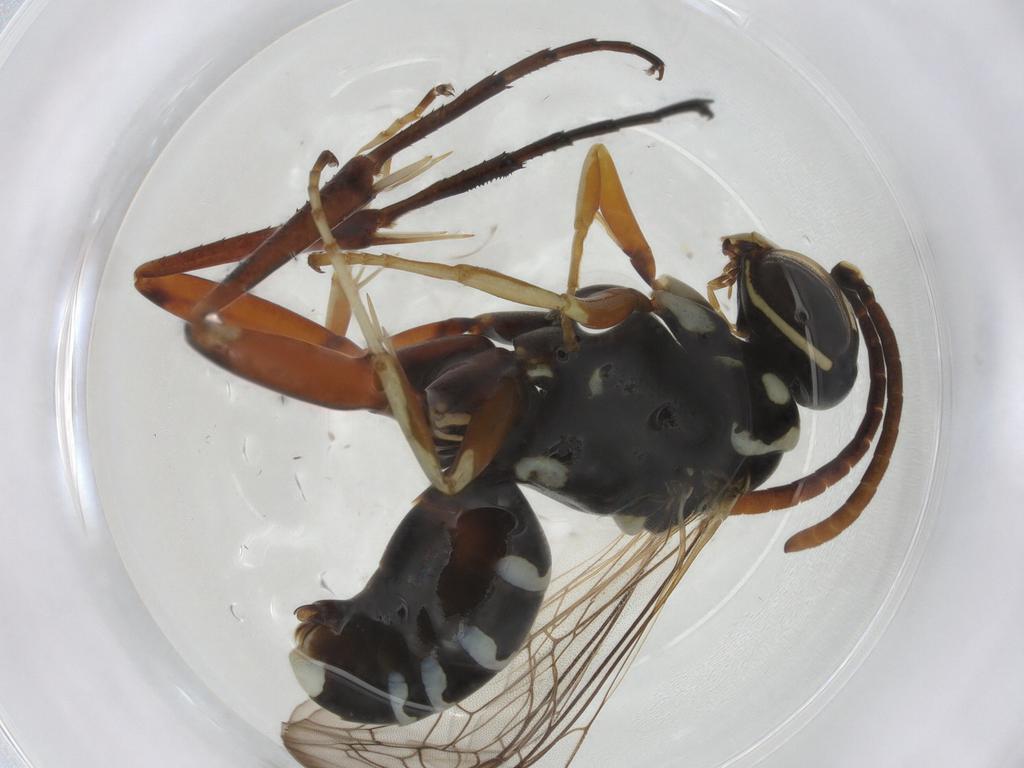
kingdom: Animalia
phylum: Arthropoda
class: Insecta
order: Hymenoptera
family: Pompilidae
